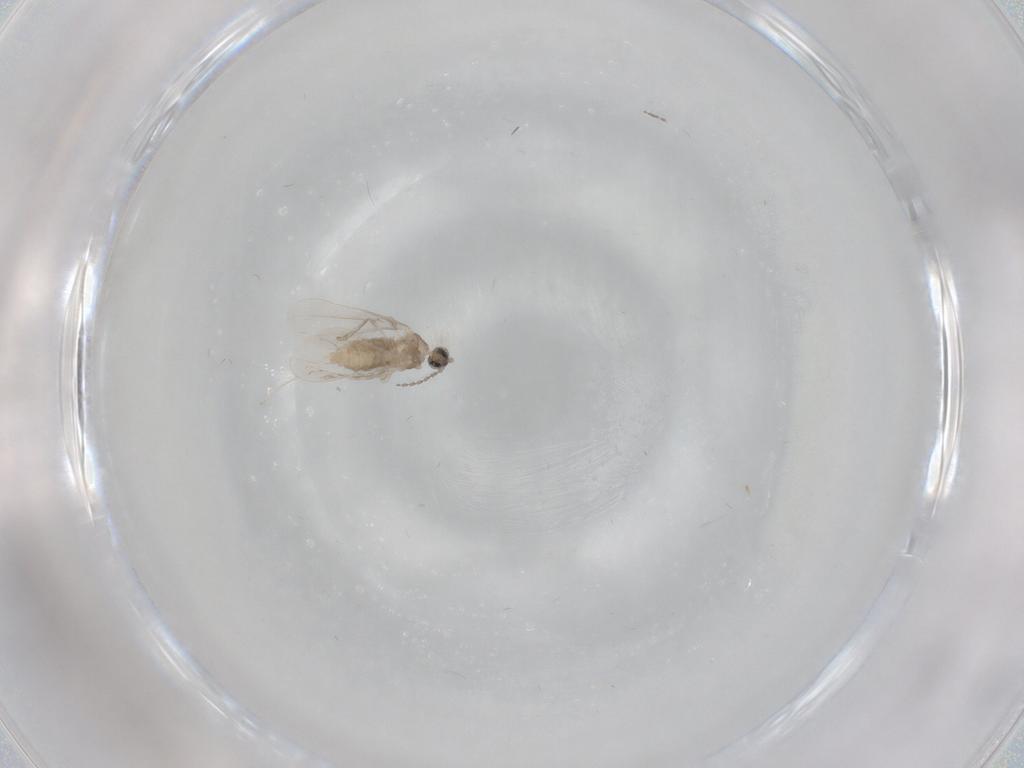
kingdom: Animalia
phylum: Arthropoda
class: Insecta
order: Diptera
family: Cecidomyiidae
